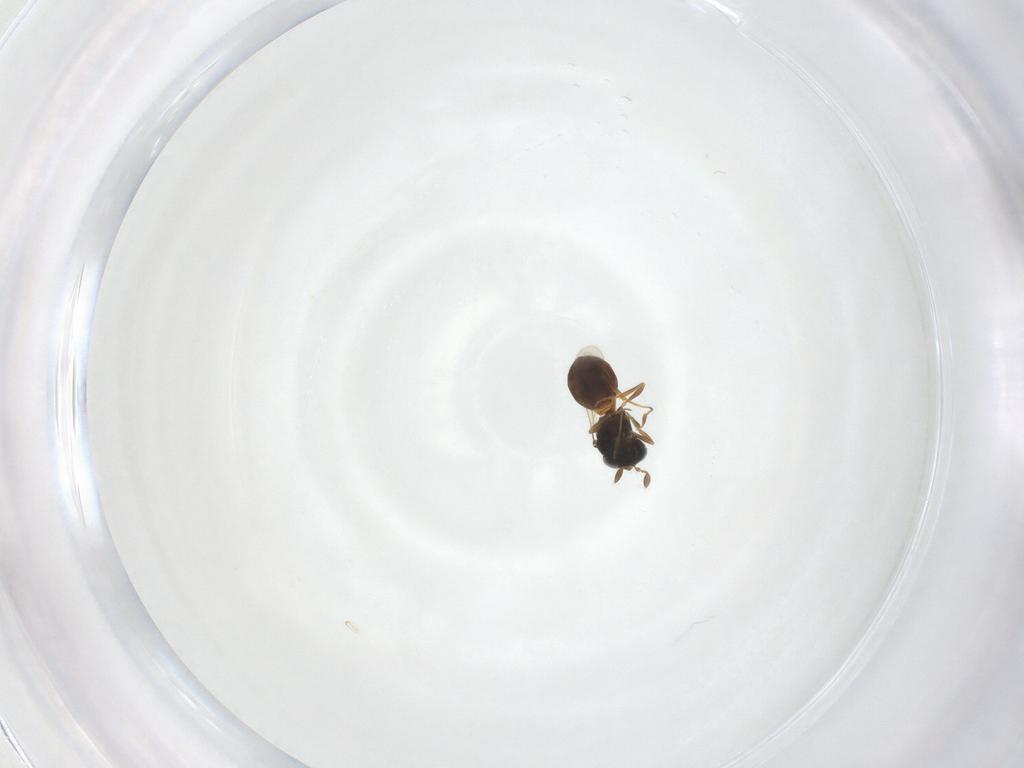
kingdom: Animalia
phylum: Arthropoda
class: Arachnida
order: Araneae
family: Pholcidae
